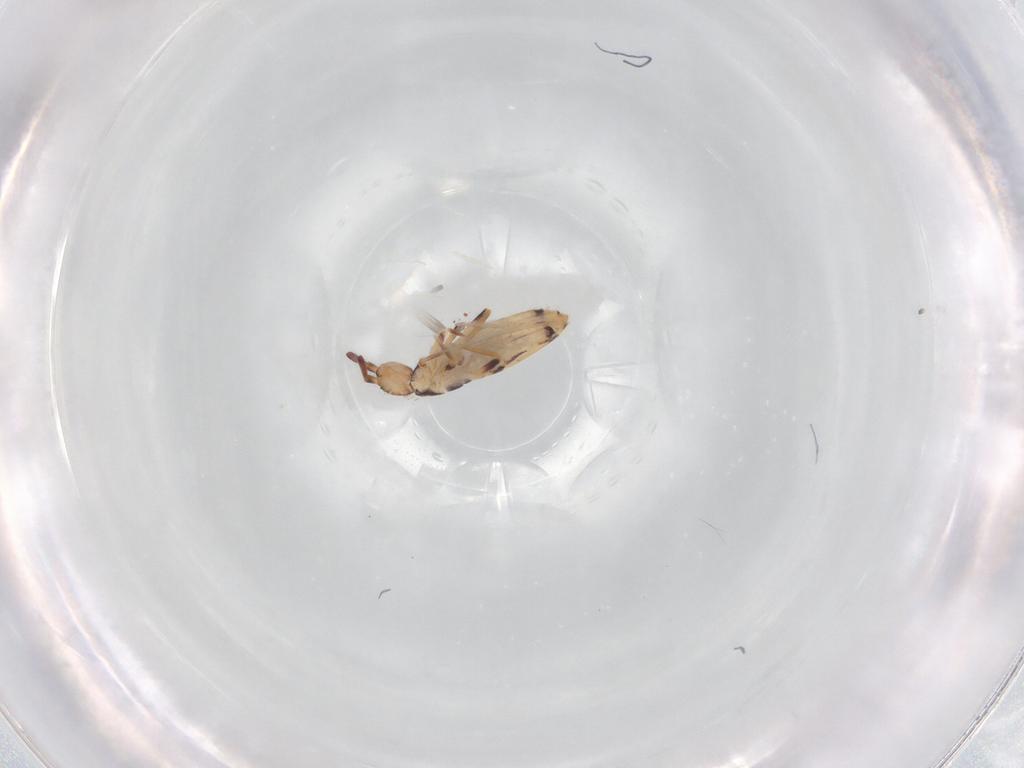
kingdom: Animalia
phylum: Arthropoda
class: Collembola
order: Entomobryomorpha
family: Entomobryidae
